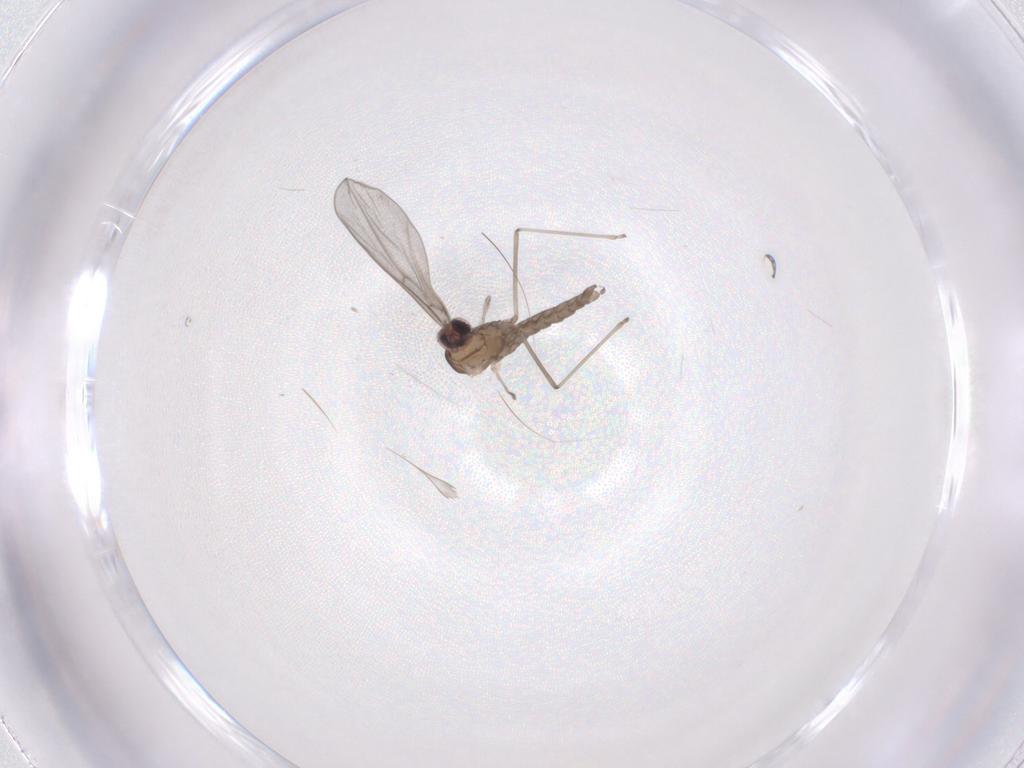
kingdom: Animalia
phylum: Arthropoda
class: Insecta
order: Diptera
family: Cecidomyiidae
